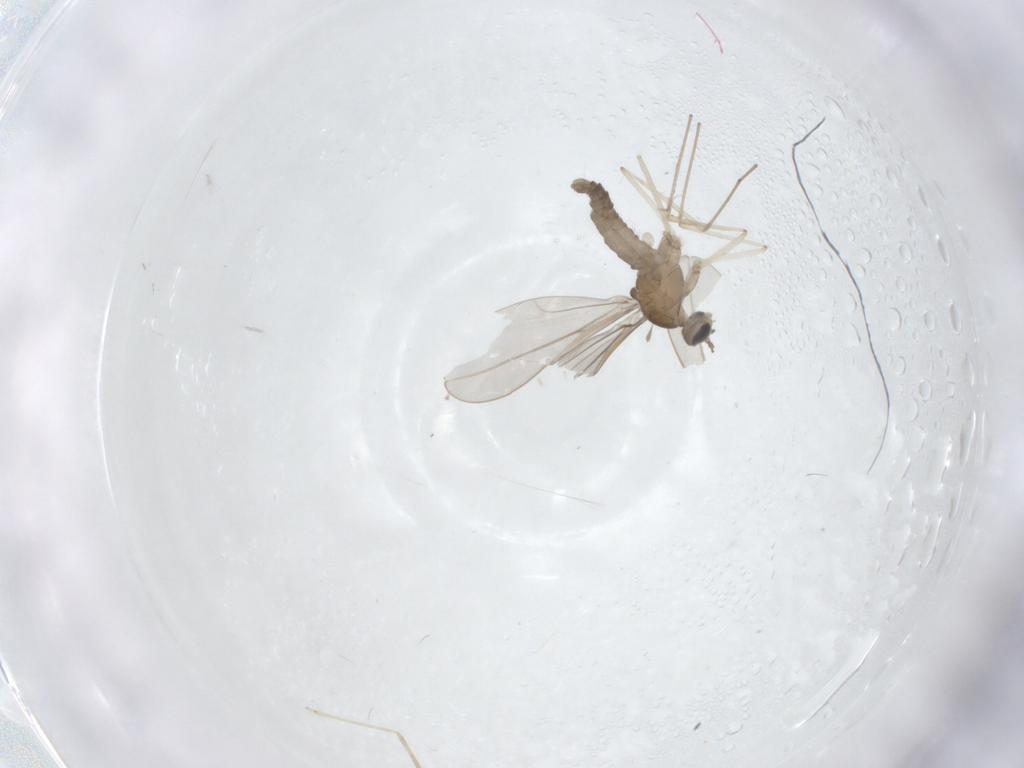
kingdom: Animalia
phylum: Arthropoda
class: Insecta
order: Diptera
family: Cecidomyiidae
